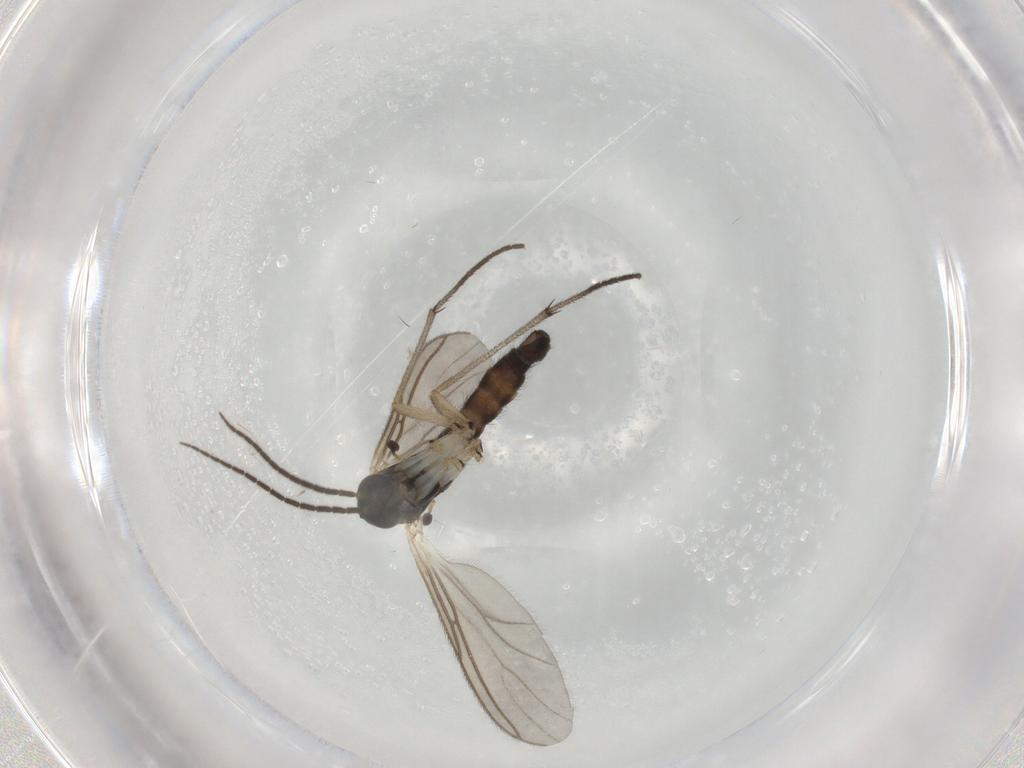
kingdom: Animalia
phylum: Arthropoda
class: Insecta
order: Diptera
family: Sciaridae
